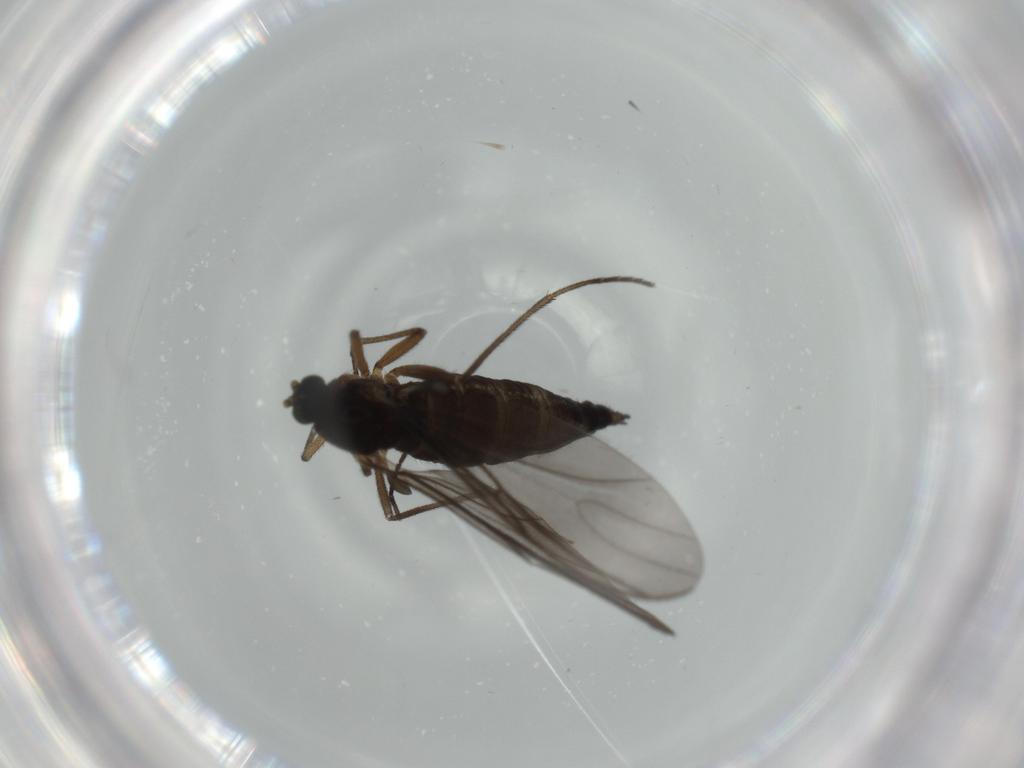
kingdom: Animalia
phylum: Arthropoda
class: Insecta
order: Diptera
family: Sciaridae
